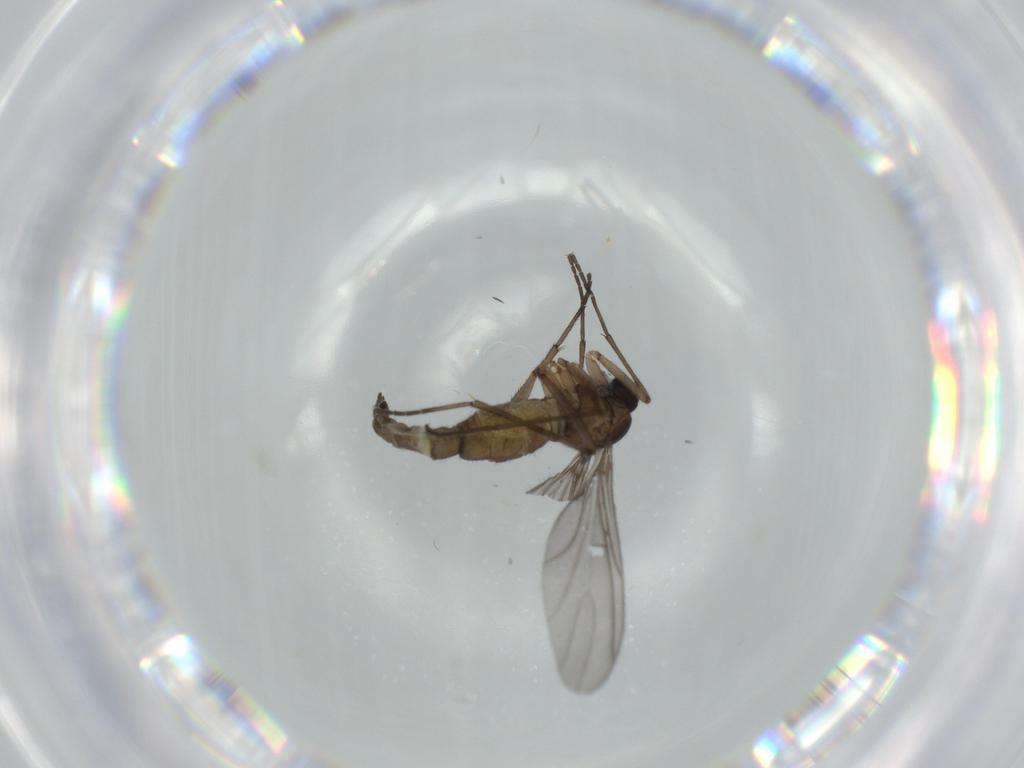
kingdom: Animalia
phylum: Arthropoda
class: Insecta
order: Diptera
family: Sciaridae
